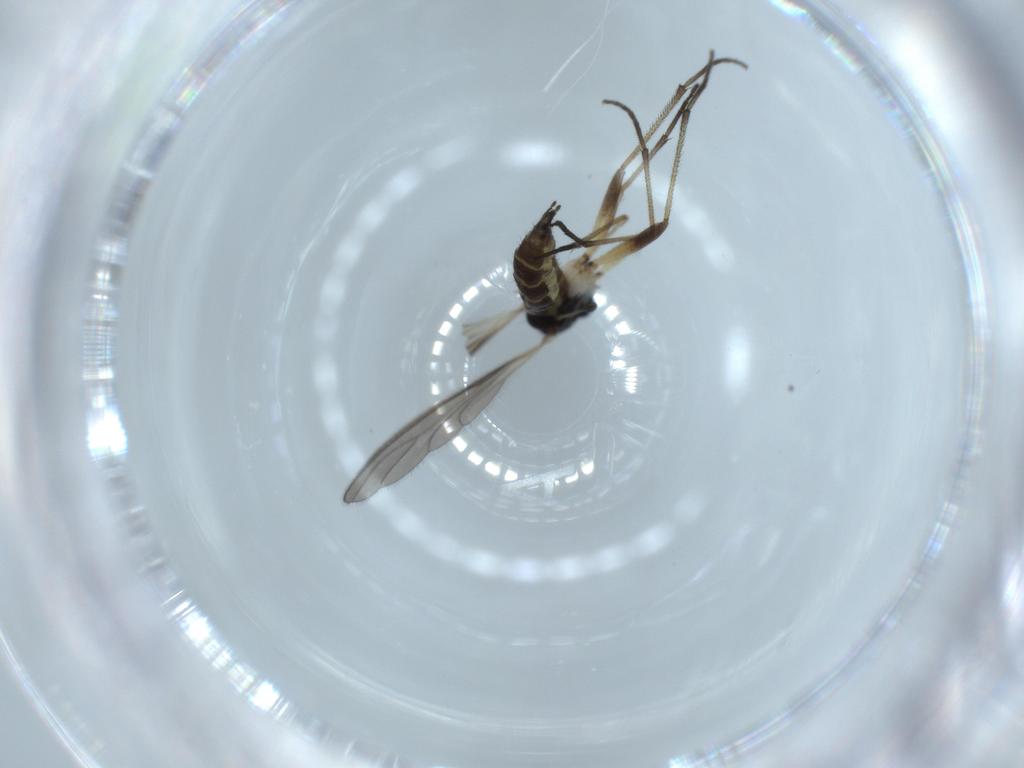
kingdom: Animalia
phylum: Arthropoda
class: Insecta
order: Diptera
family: Sciaridae
